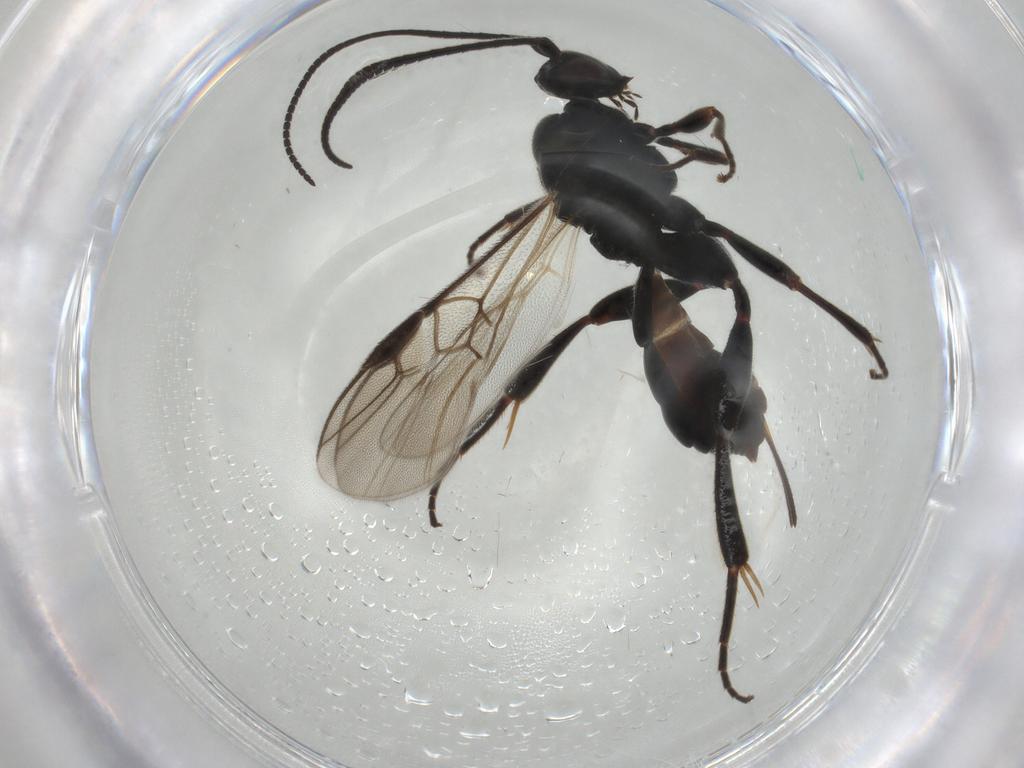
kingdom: Animalia
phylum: Arthropoda
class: Insecta
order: Hymenoptera
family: Braconidae
